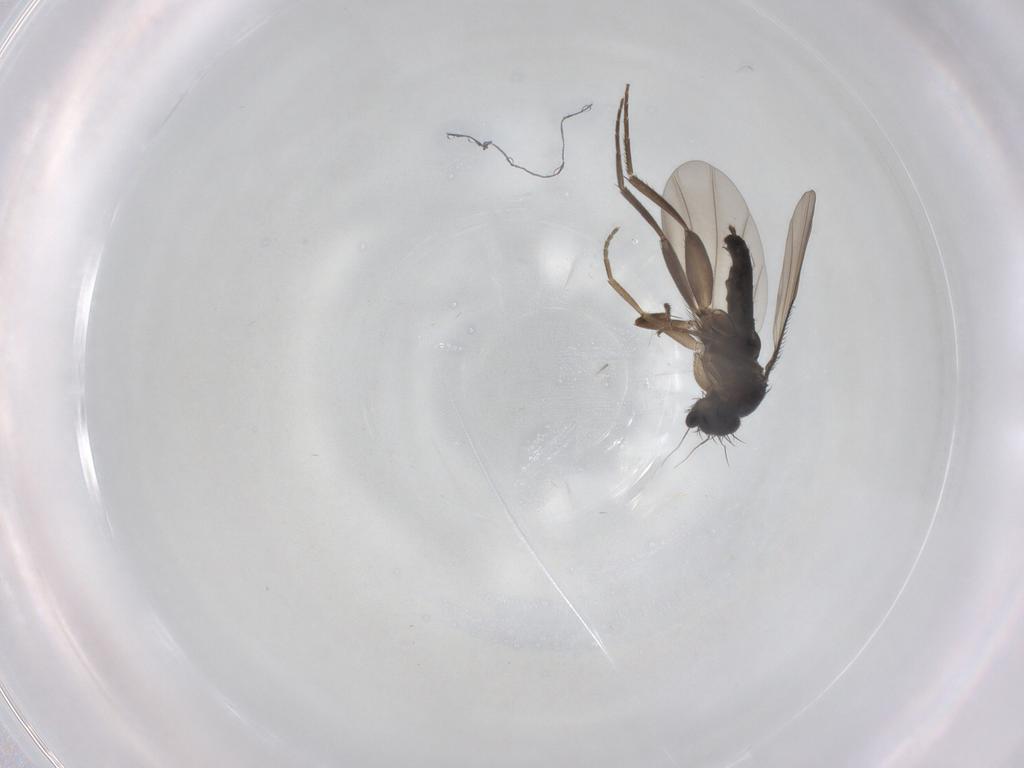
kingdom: Animalia
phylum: Arthropoda
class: Insecta
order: Diptera
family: Phoridae
